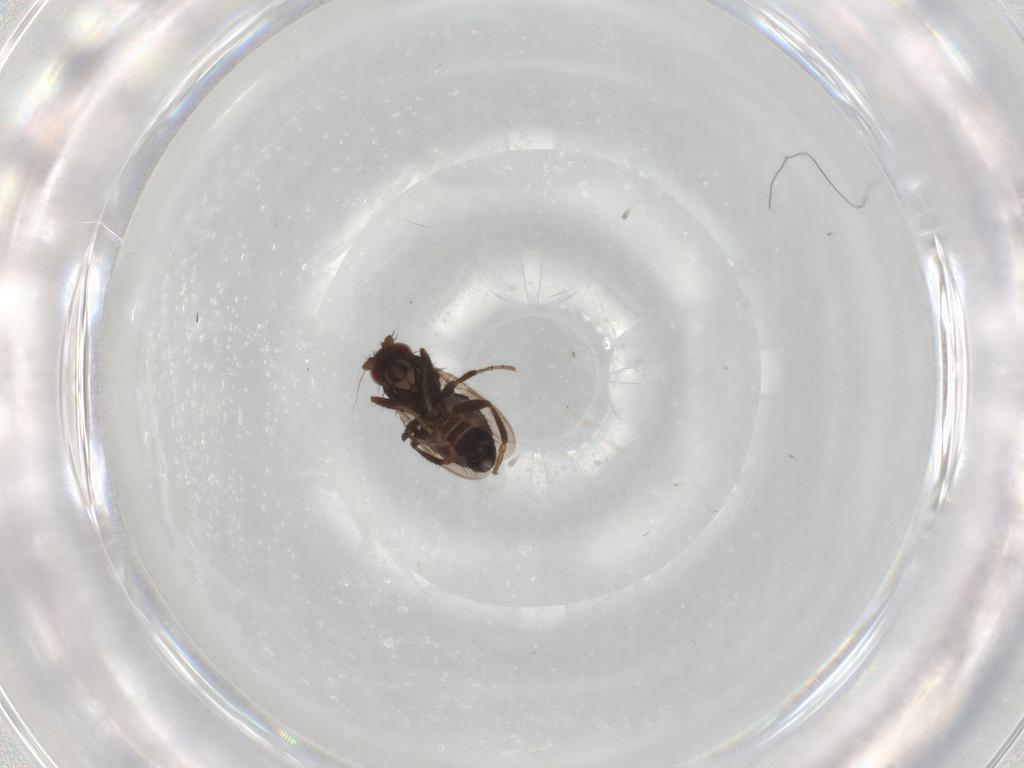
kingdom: Animalia
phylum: Arthropoda
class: Insecta
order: Diptera
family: Sphaeroceridae
